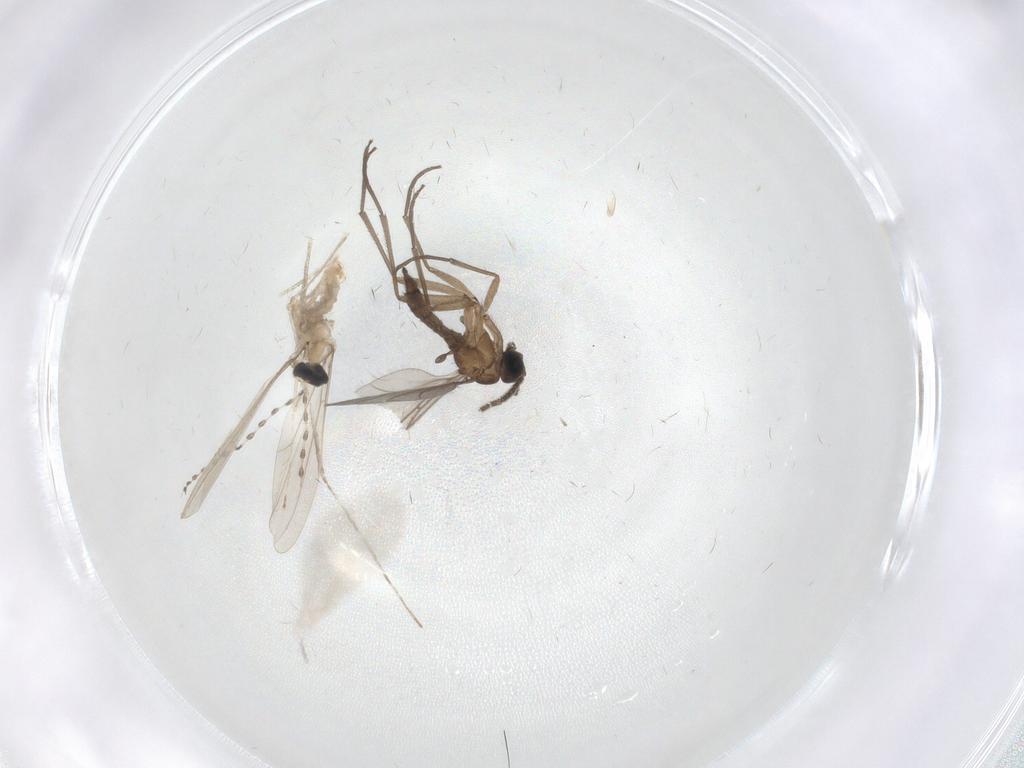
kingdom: Animalia
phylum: Arthropoda
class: Insecta
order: Diptera
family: Sciaridae
